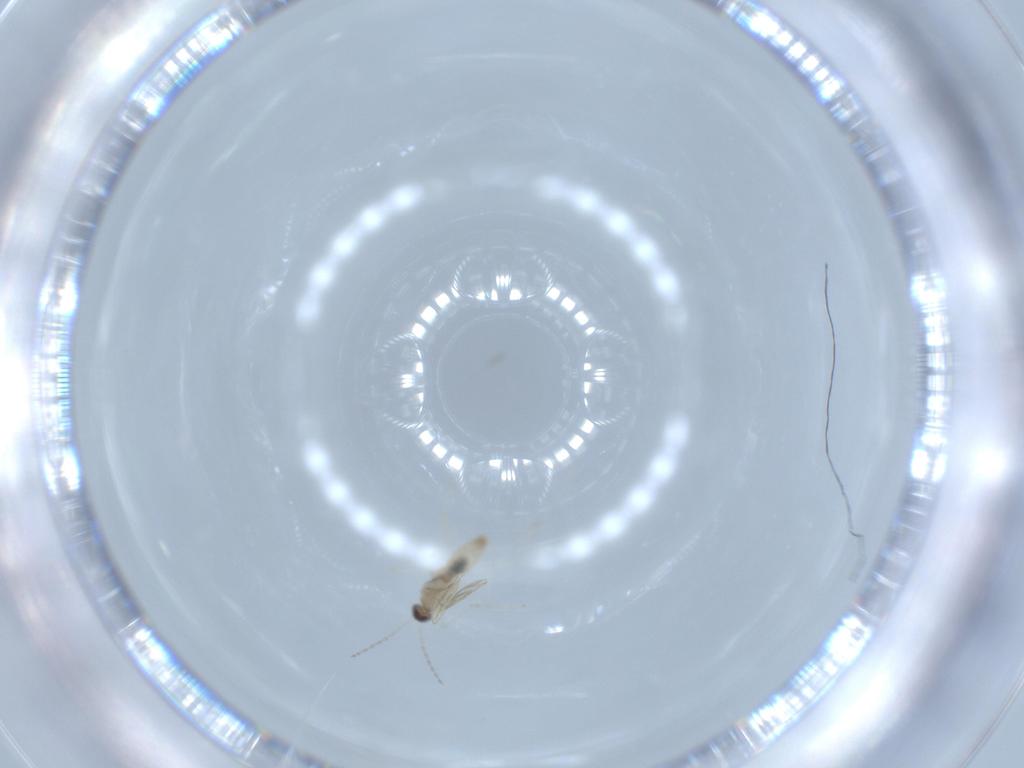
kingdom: Animalia
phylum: Arthropoda
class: Insecta
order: Diptera
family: Cecidomyiidae
